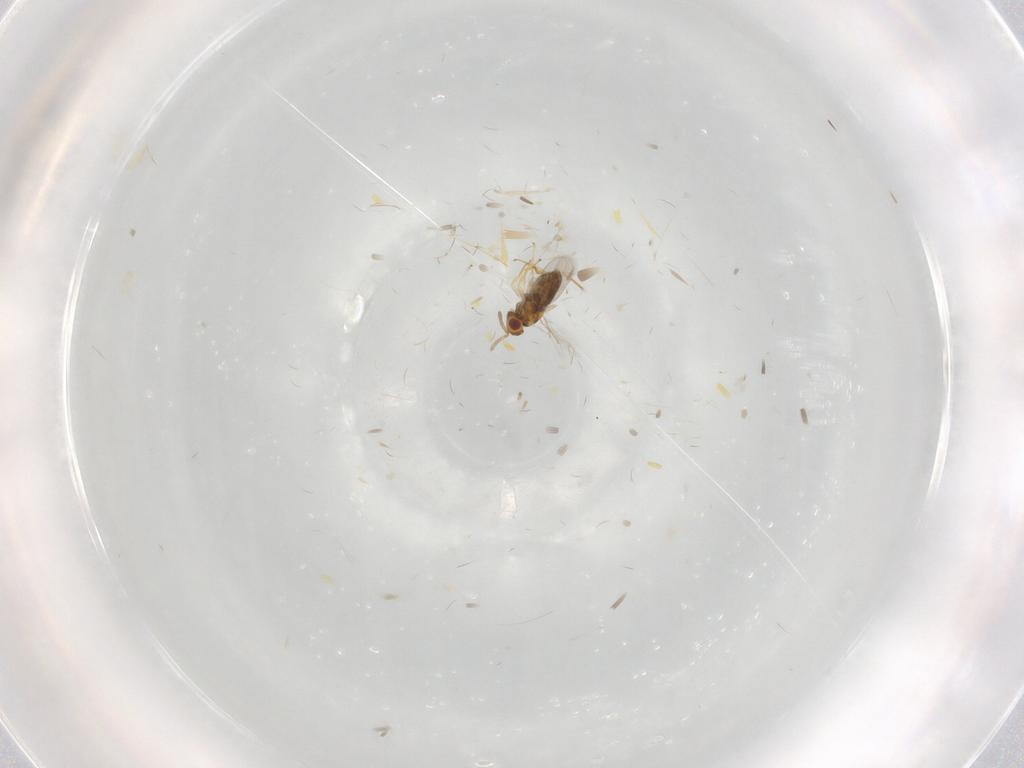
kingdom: Animalia
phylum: Arthropoda
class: Insecta
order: Hymenoptera
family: Aphelinidae
